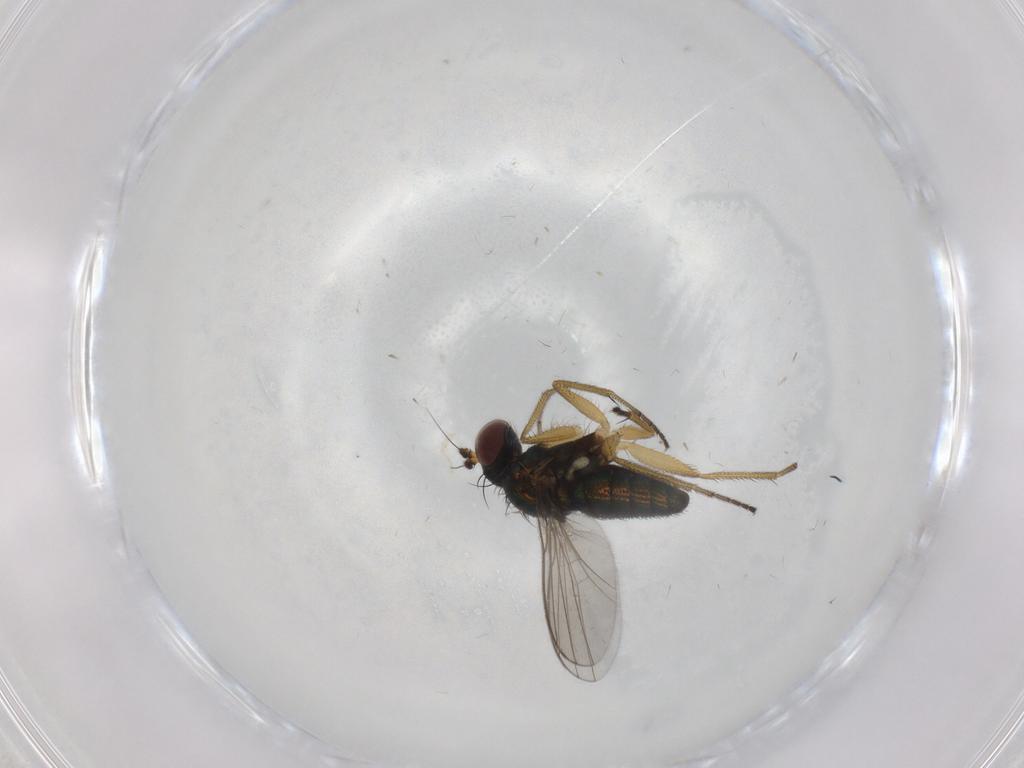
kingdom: Animalia
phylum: Arthropoda
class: Insecta
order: Diptera
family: Dolichopodidae
